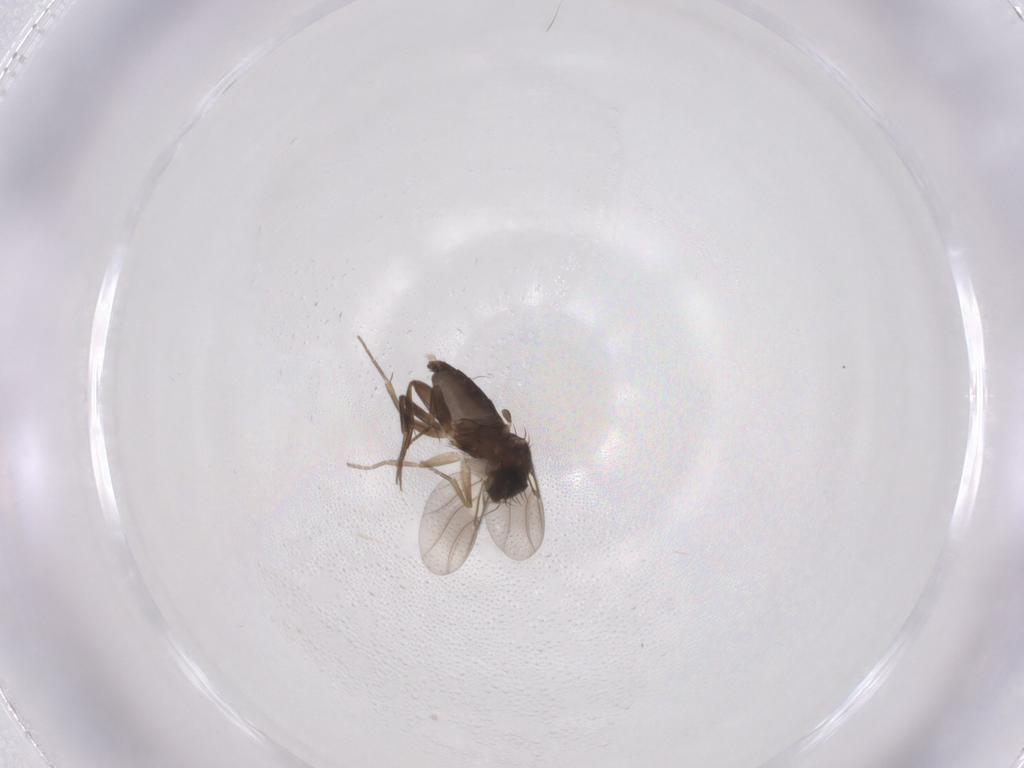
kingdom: Animalia
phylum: Arthropoda
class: Insecta
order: Diptera
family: Phoridae
